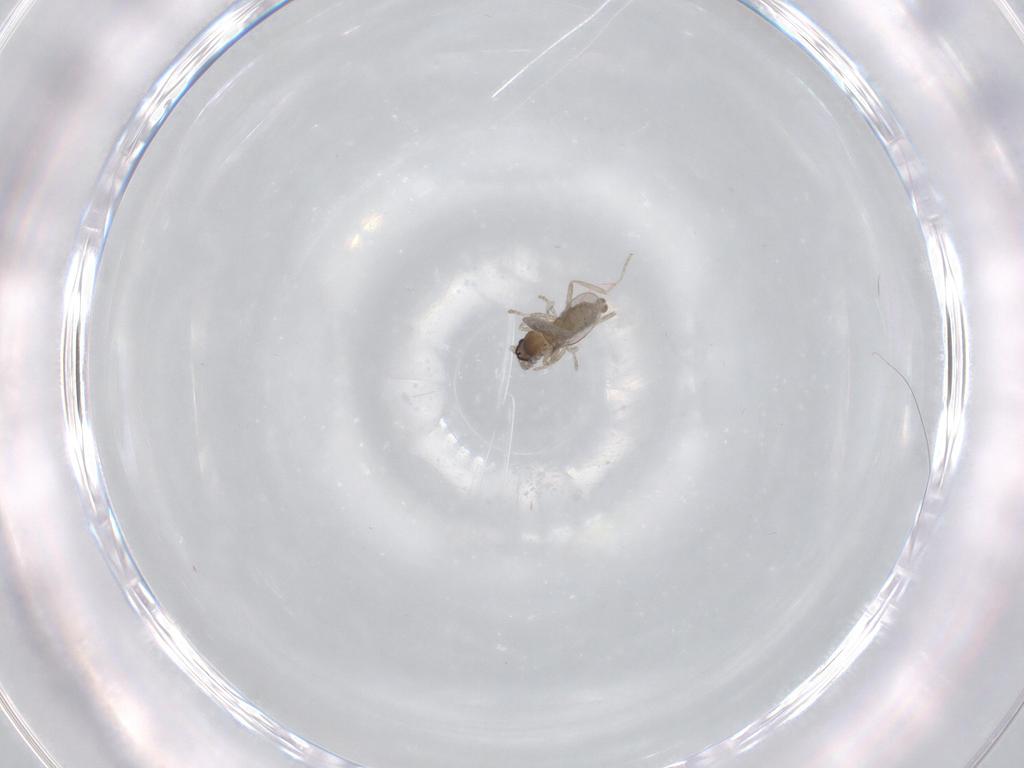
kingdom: Animalia
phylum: Arthropoda
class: Insecta
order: Diptera
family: Cecidomyiidae
